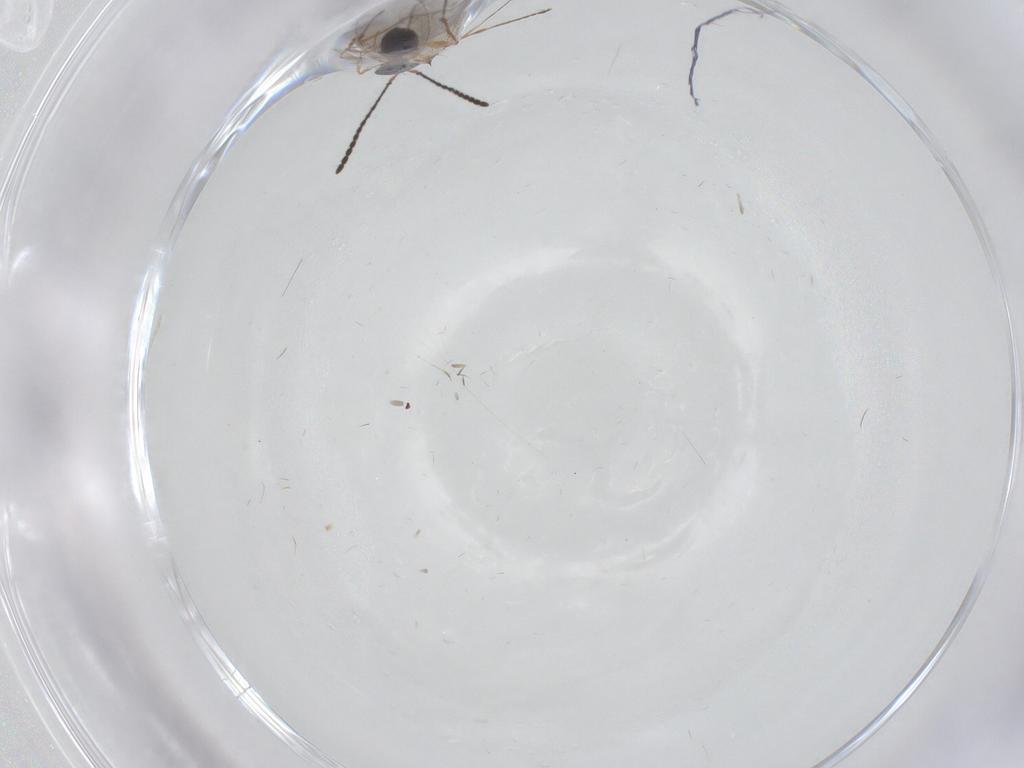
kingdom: Animalia
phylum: Arthropoda
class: Insecta
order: Hymenoptera
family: Diapriidae
